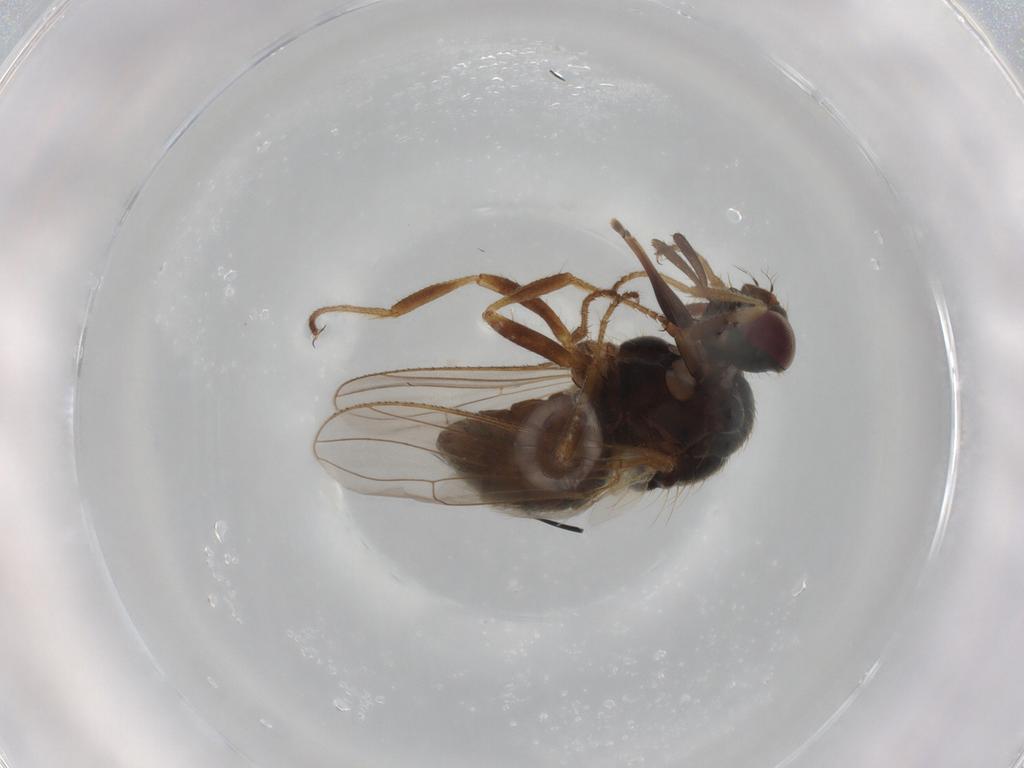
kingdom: Animalia
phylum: Arthropoda
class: Insecta
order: Diptera
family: Muscidae
